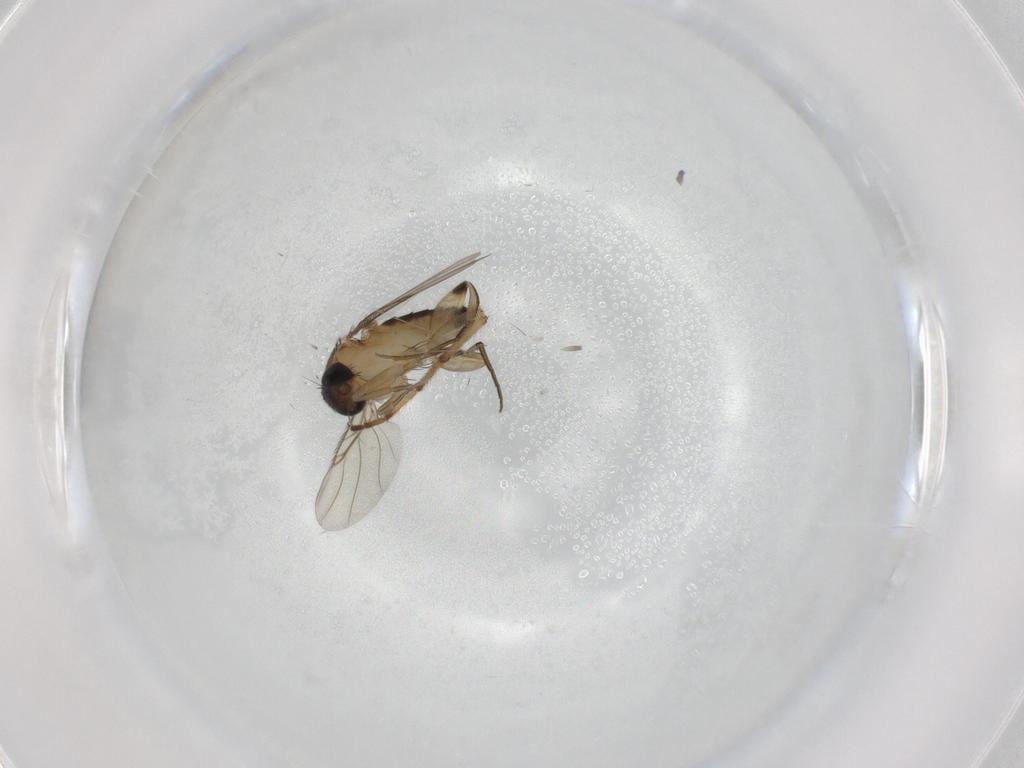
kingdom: Animalia
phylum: Arthropoda
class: Insecta
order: Diptera
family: Phoridae
